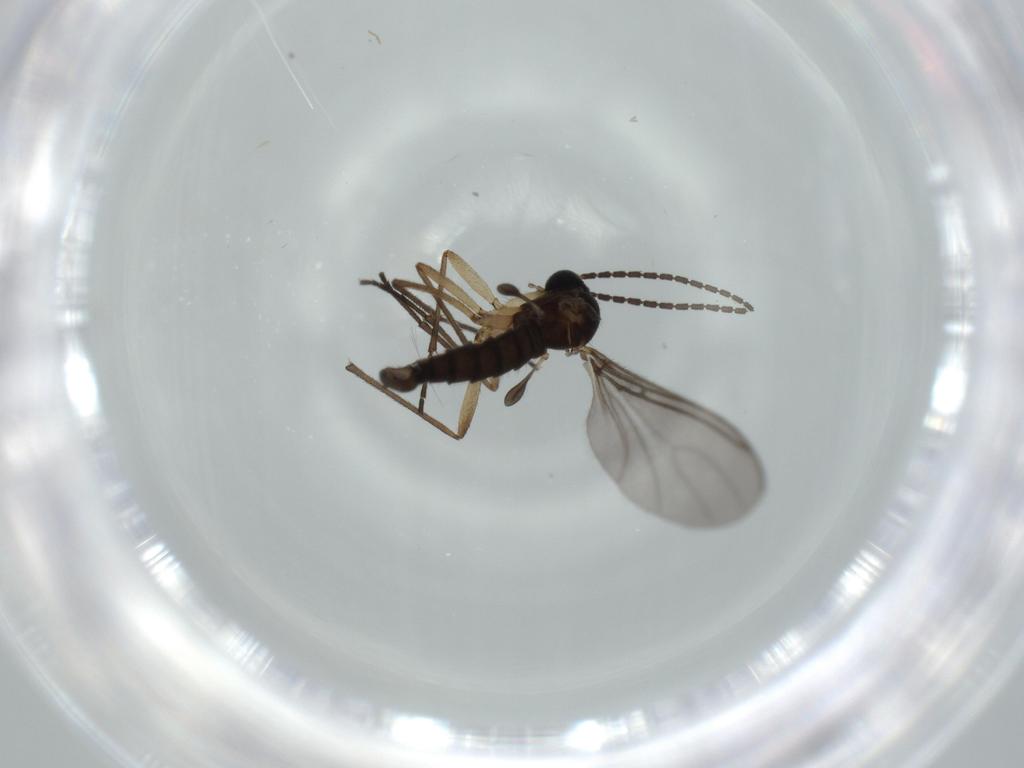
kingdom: Animalia
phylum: Arthropoda
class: Insecta
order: Diptera
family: Sciaridae
